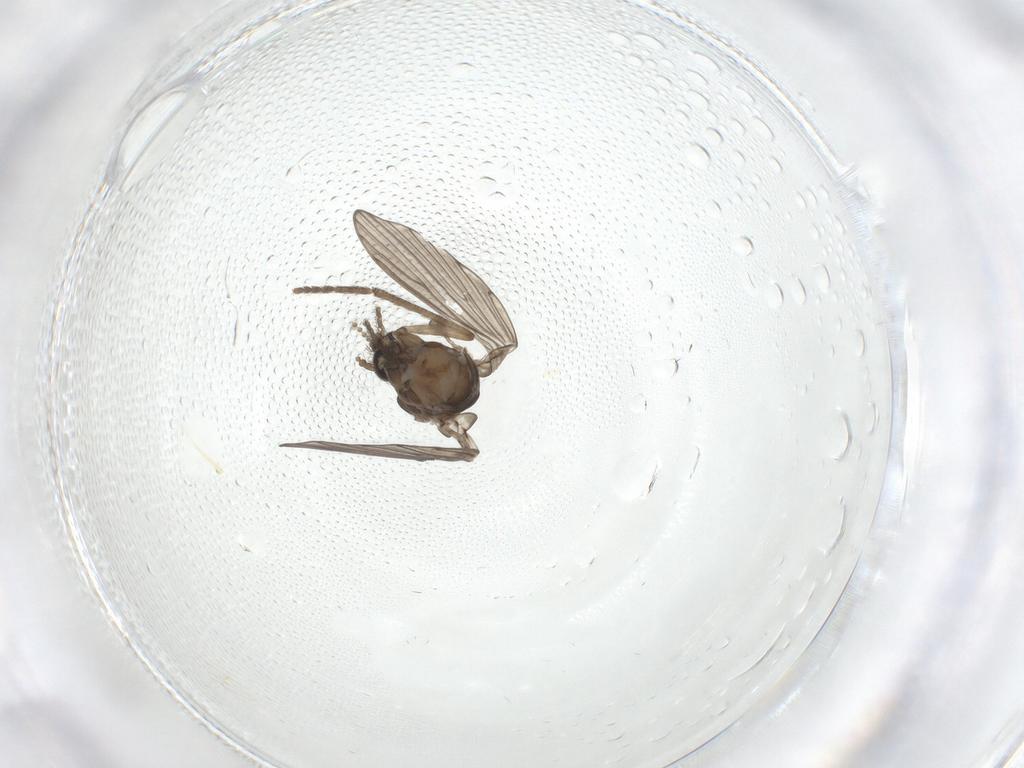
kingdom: Animalia
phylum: Arthropoda
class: Insecta
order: Diptera
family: Psychodidae
